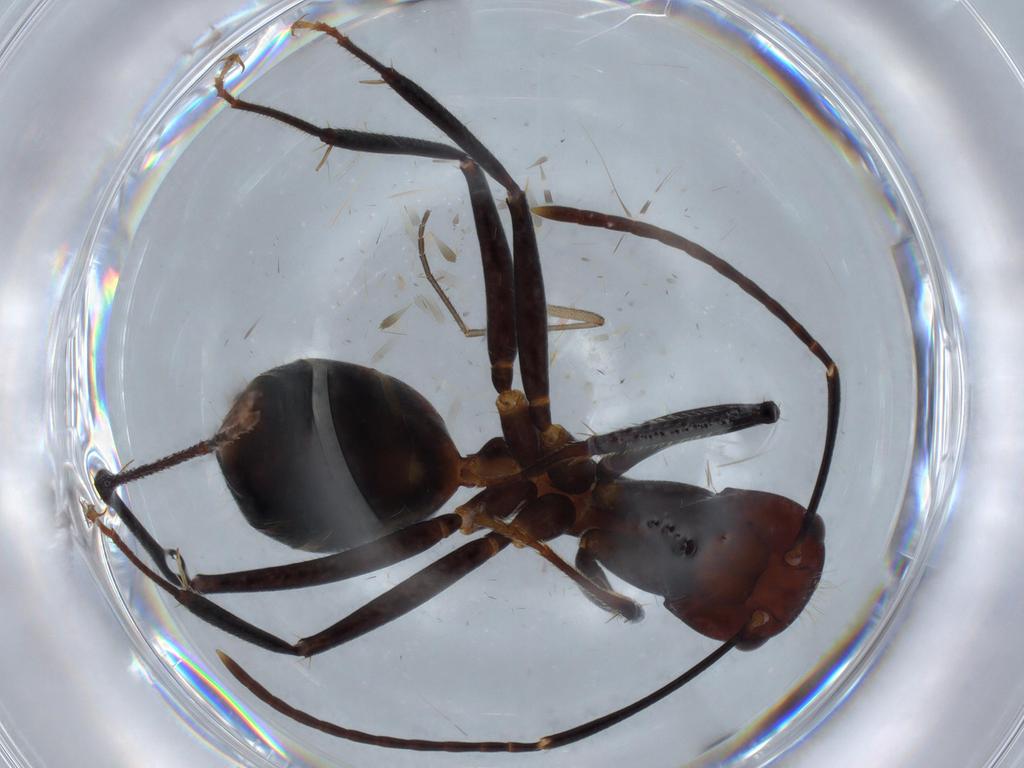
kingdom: Animalia
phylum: Arthropoda
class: Insecta
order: Hymenoptera
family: Formicidae
